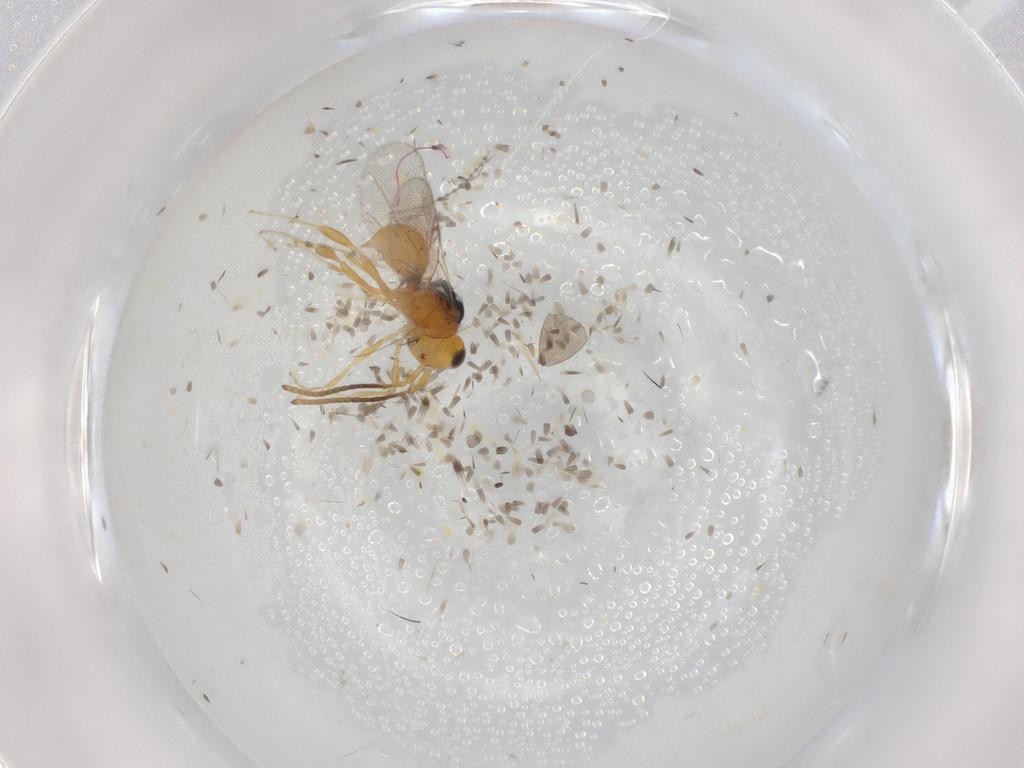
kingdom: Animalia
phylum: Arthropoda
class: Insecta
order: Hymenoptera
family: Diapriidae
